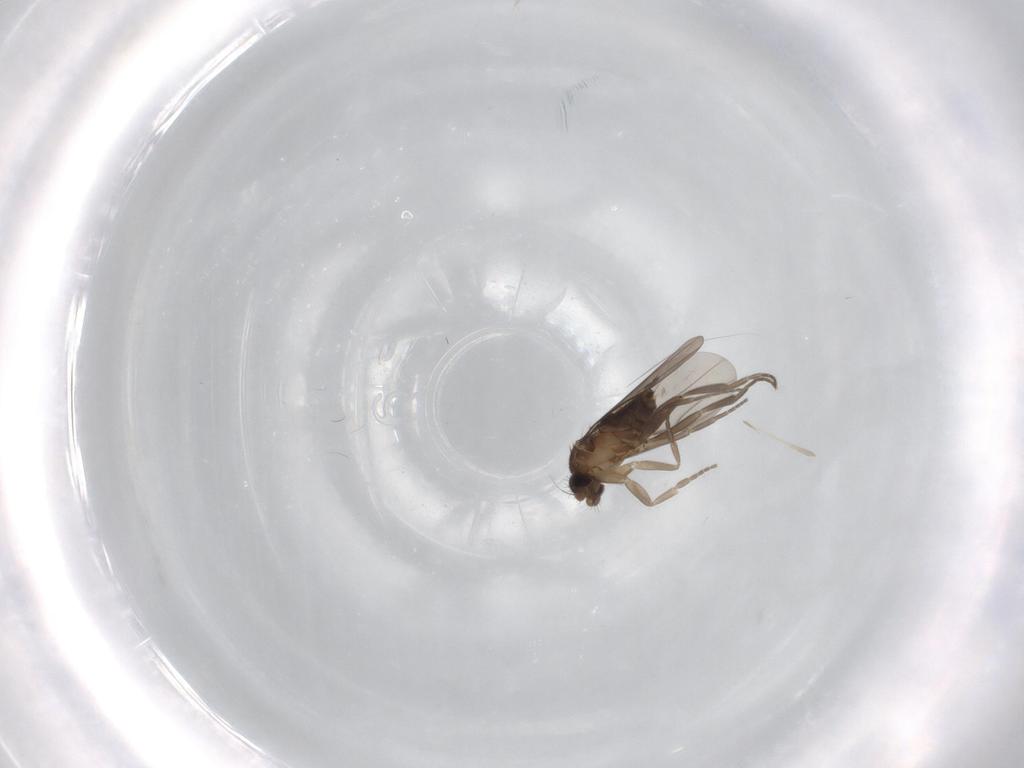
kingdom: Animalia
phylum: Arthropoda
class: Insecta
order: Diptera
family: Phoridae
